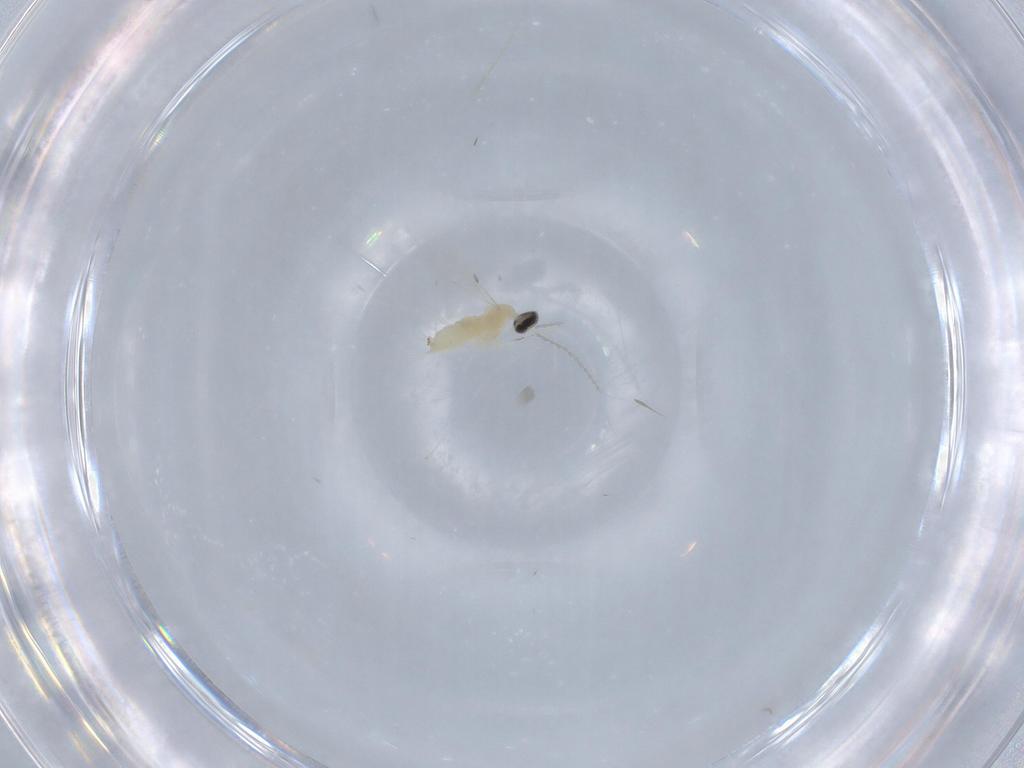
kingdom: Animalia
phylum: Arthropoda
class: Insecta
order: Diptera
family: Cecidomyiidae
